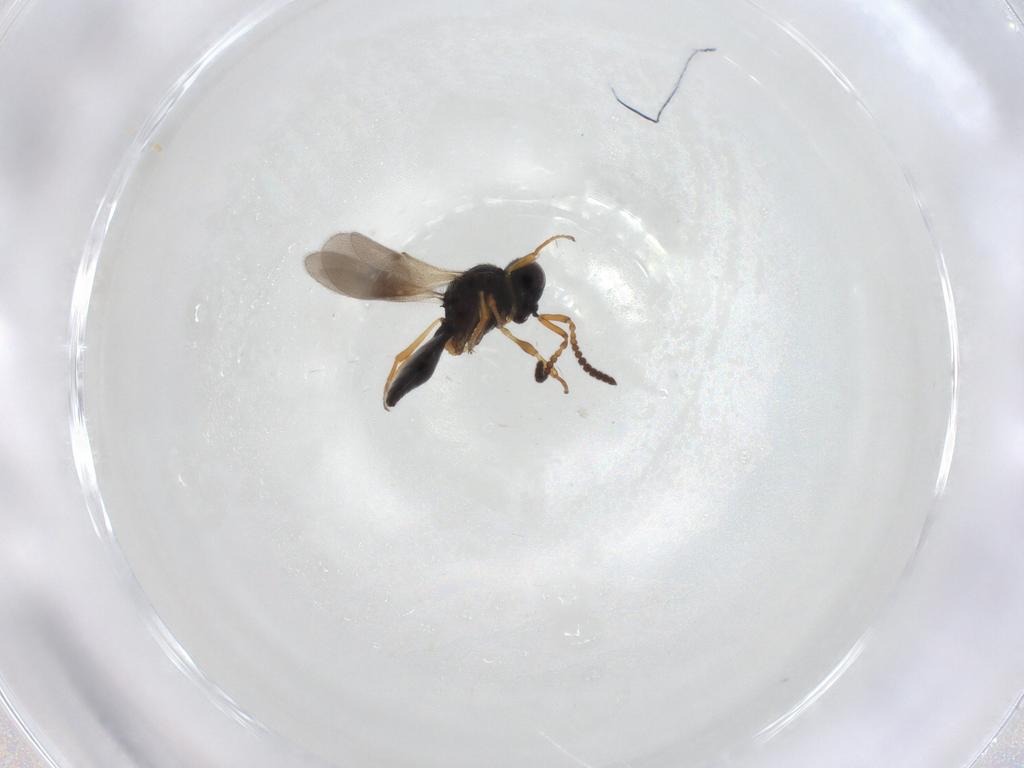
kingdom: Animalia
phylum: Arthropoda
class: Insecta
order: Hymenoptera
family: Scelionidae
